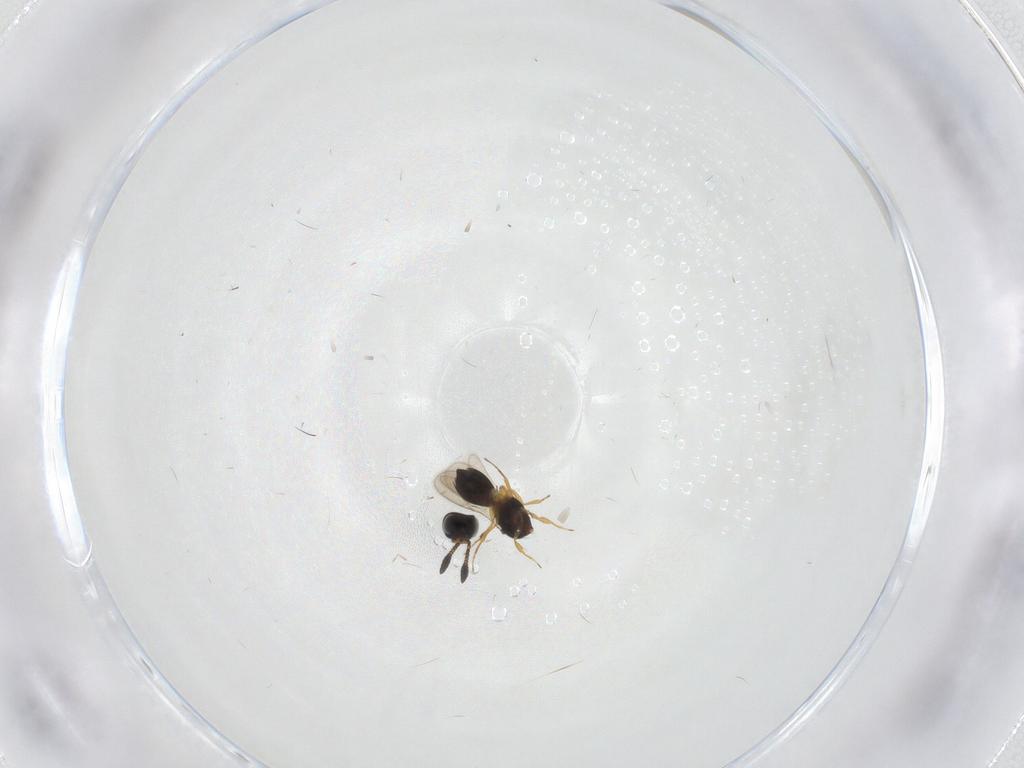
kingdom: Animalia
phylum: Arthropoda
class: Insecta
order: Hymenoptera
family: Scelionidae
